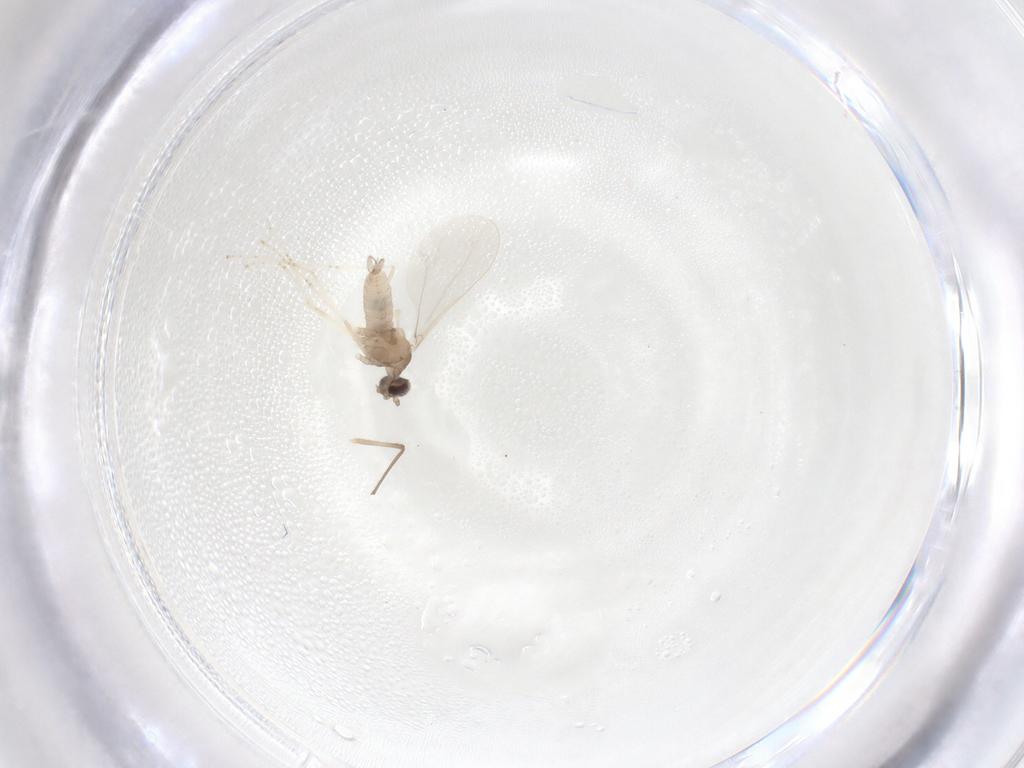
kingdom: Animalia
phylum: Arthropoda
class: Insecta
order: Diptera
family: Cecidomyiidae
